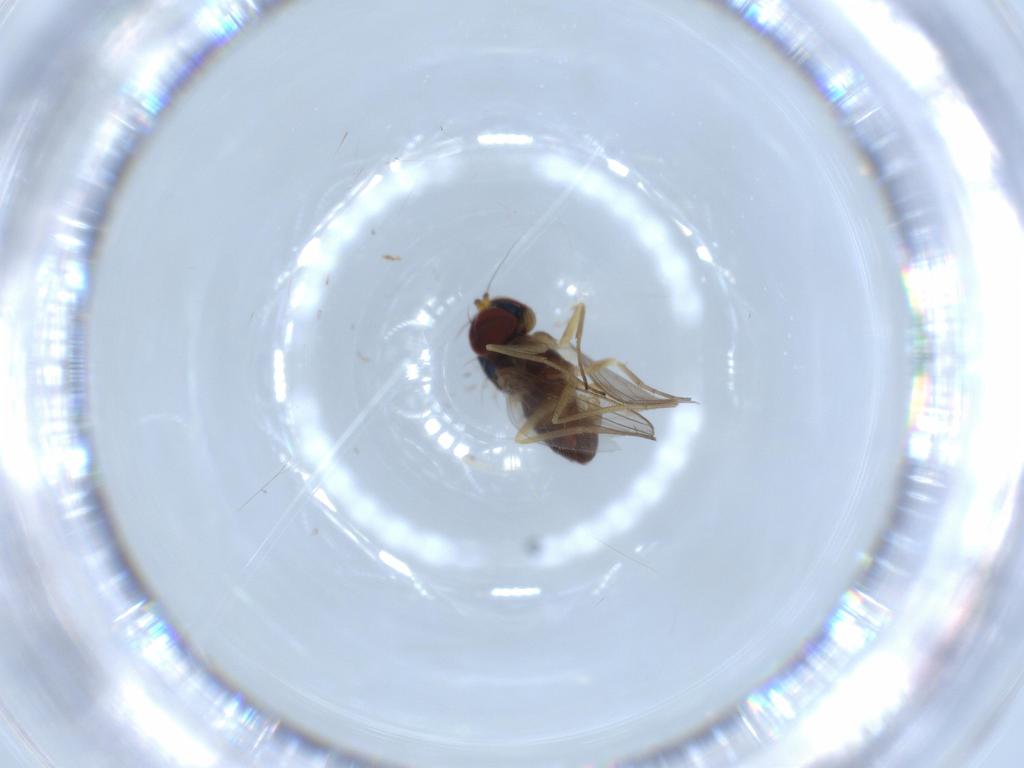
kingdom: Animalia
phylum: Arthropoda
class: Insecta
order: Diptera
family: Dolichopodidae
